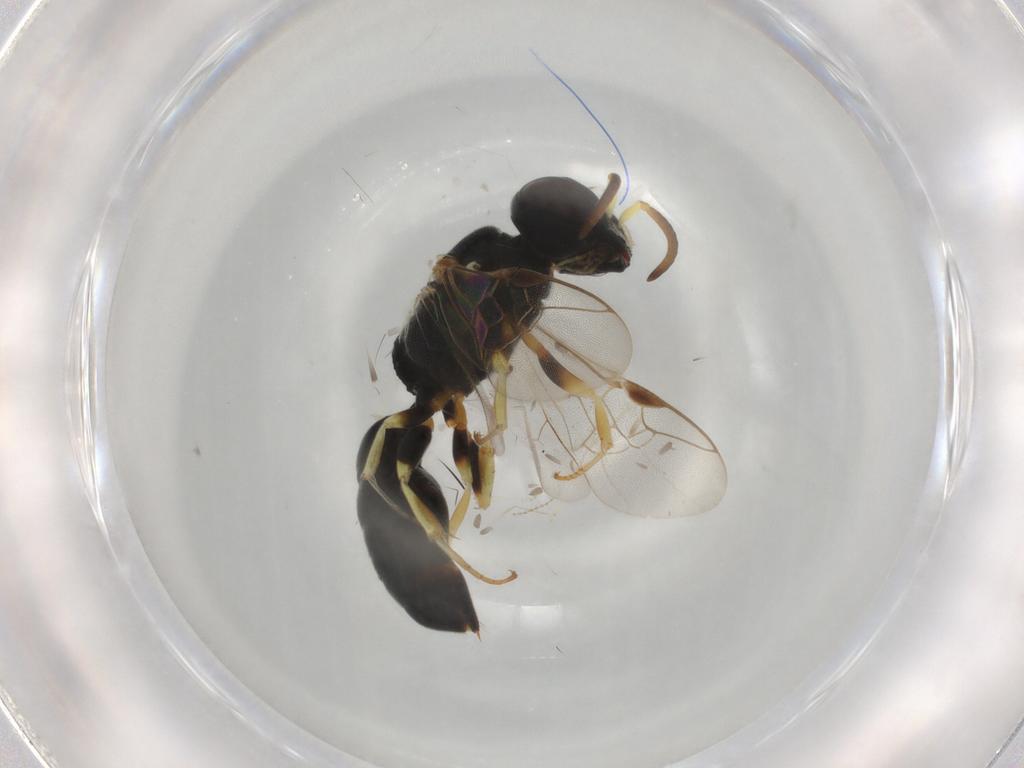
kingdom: Animalia
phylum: Arthropoda
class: Insecta
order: Hymenoptera
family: Pemphredonidae
